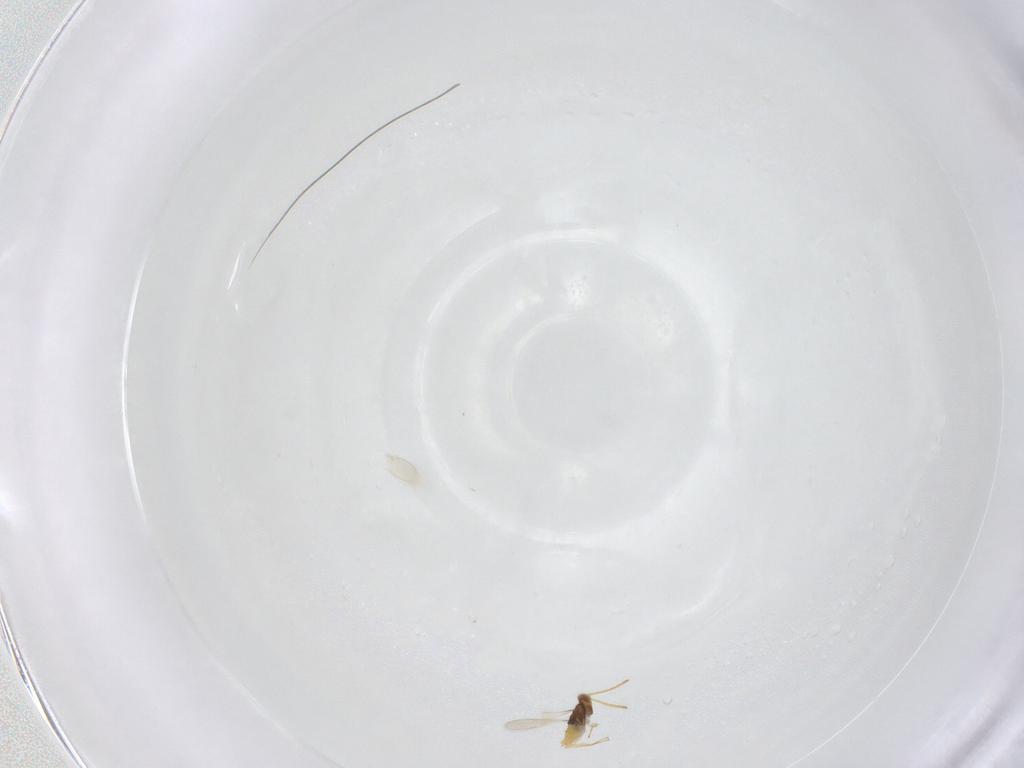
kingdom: Animalia
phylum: Arthropoda
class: Insecta
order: Hymenoptera
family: Aphelinidae
